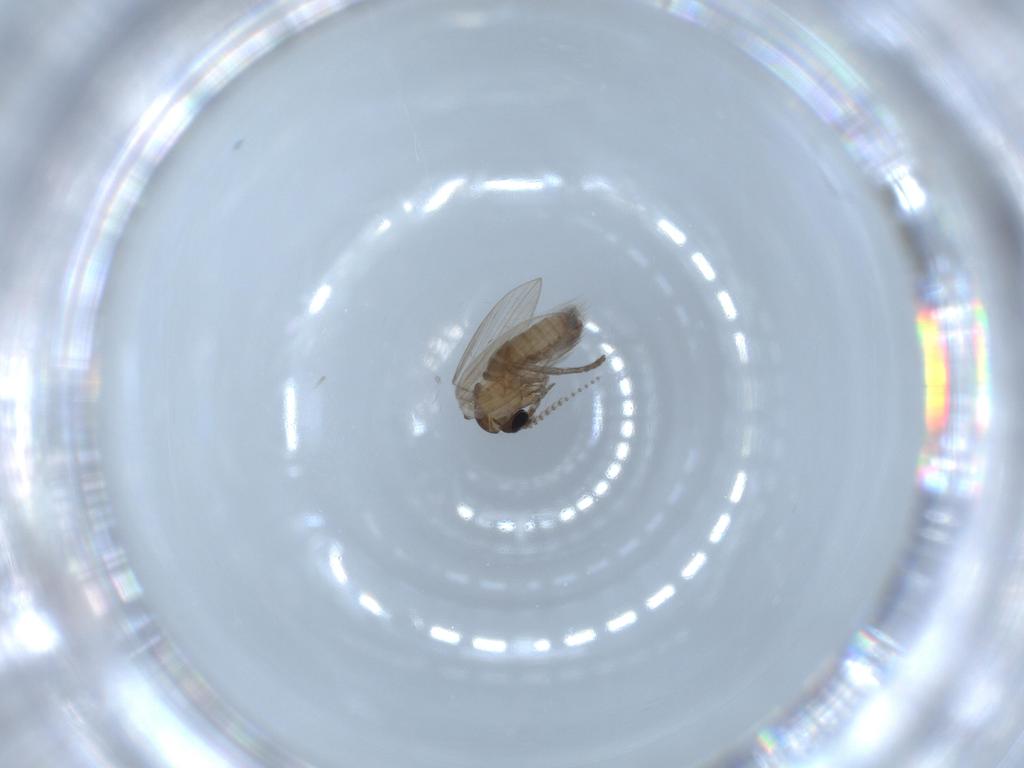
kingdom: Animalia
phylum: Arthropoda
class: Insecta
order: Diptera
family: Psychodidae
